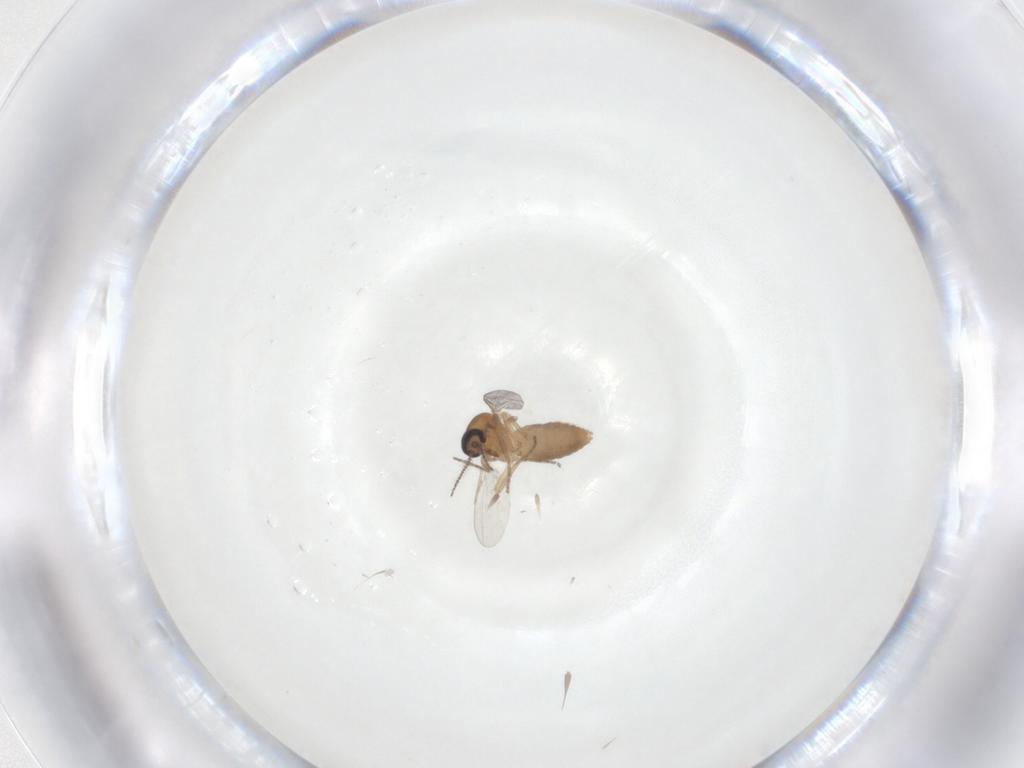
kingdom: Animalia
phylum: Arthropoda
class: Insecta
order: Diptera
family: Ceratopogonidae
